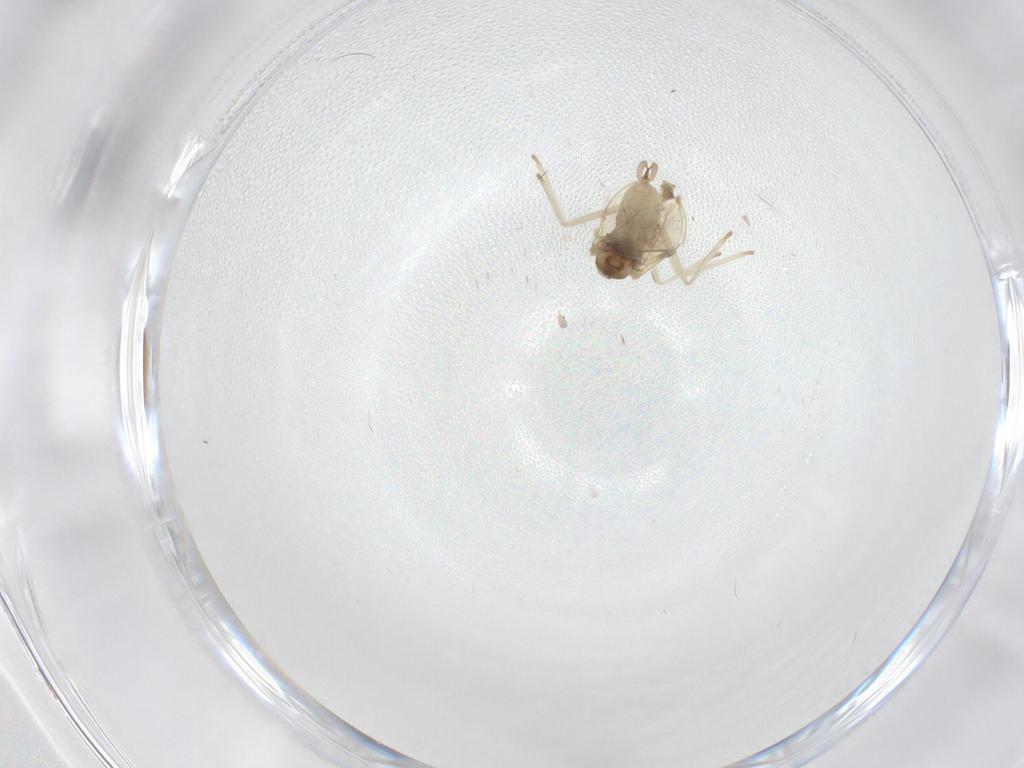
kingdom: Animalia
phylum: Arthropoda
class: Insecta
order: Diptera
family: Cecidomyiidae
